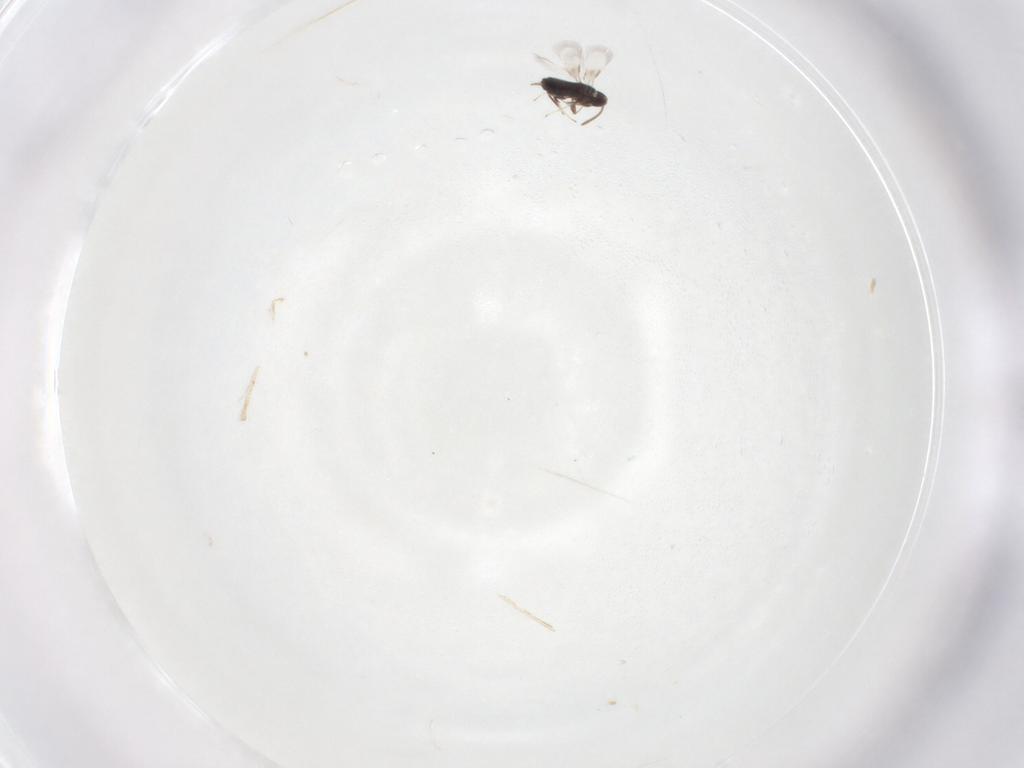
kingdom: Animalia
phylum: Arthropoda
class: Insecta
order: Hymenoptera
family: Signiphoridae
